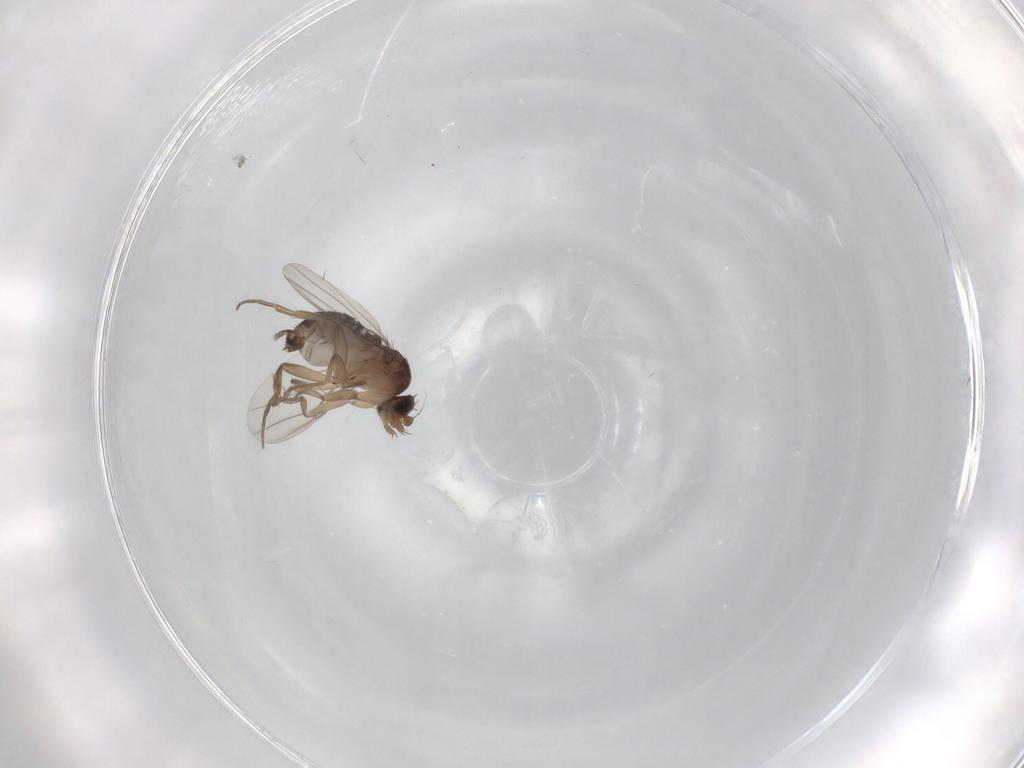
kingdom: Animalia
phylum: Arthropoda
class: Insecta
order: Diptera
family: Phoridae
